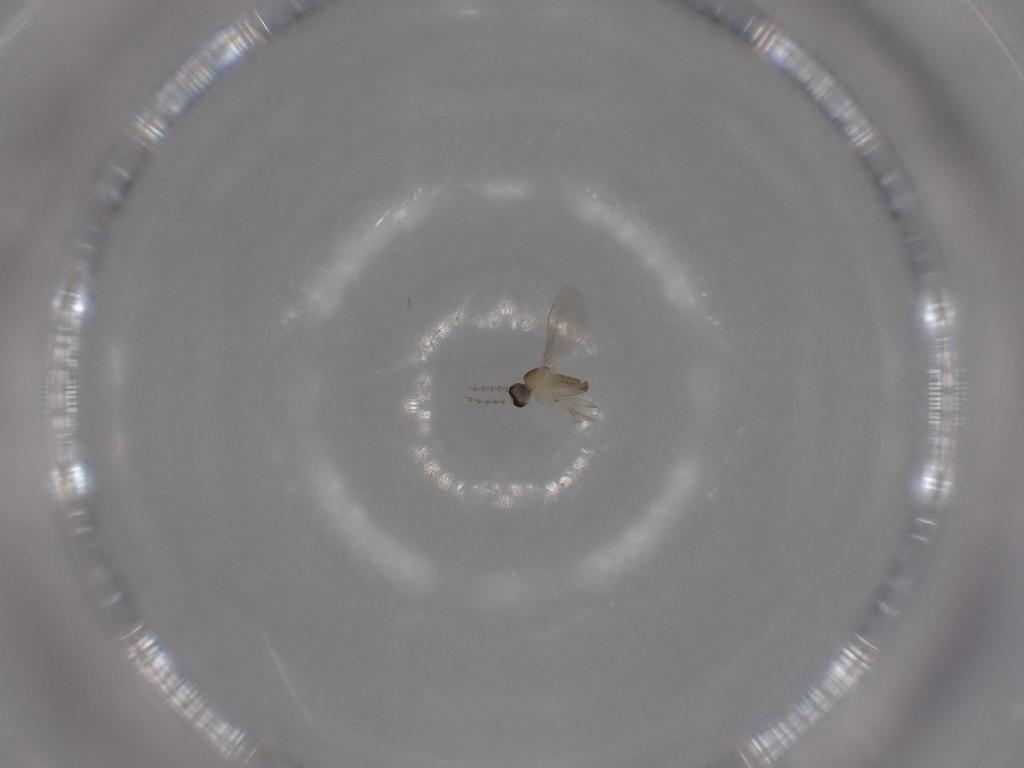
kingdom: Animalia
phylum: Arthropoda
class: Insecta
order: Diptera
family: Cecidomyiidae
